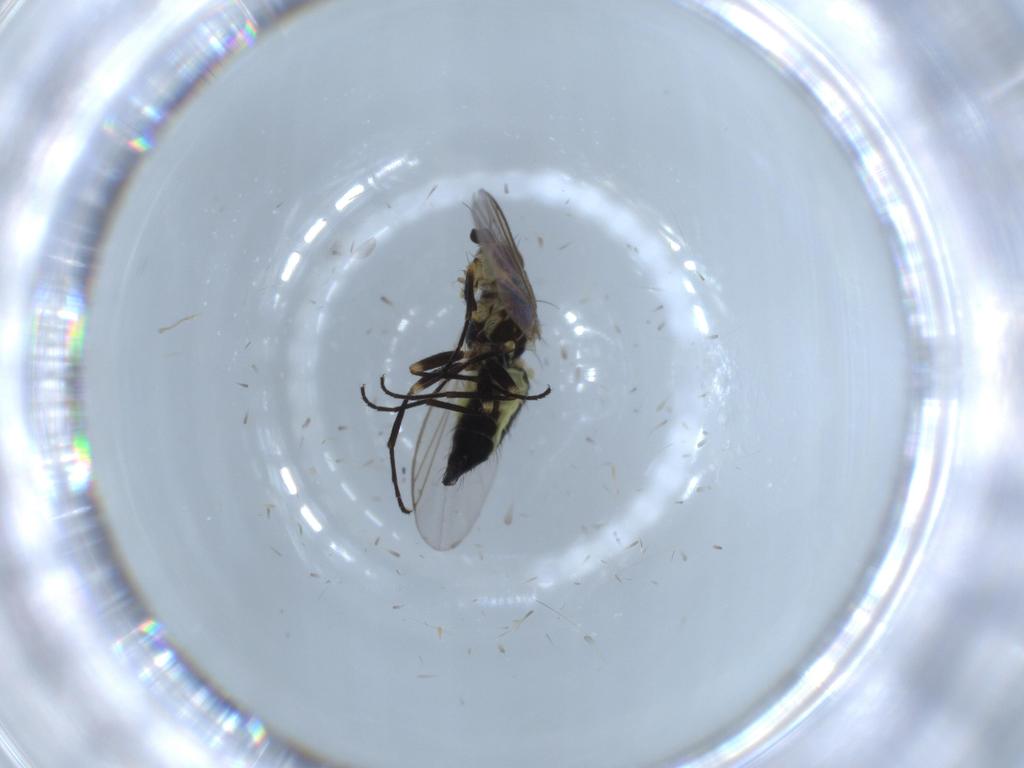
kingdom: Animalia
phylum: Arthropoda
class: Insecta
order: Diptera
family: Agromyzidae
